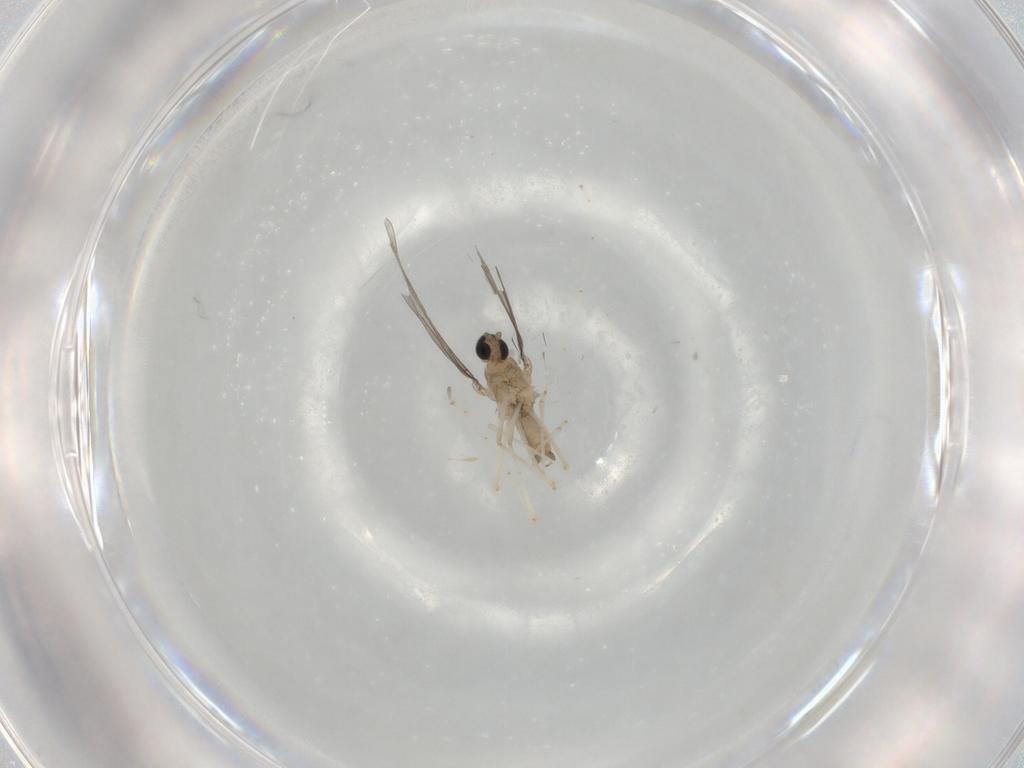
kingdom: Animalia
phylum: Arthropoda
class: Insecta
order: Diptera
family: Cecidomyiidae
